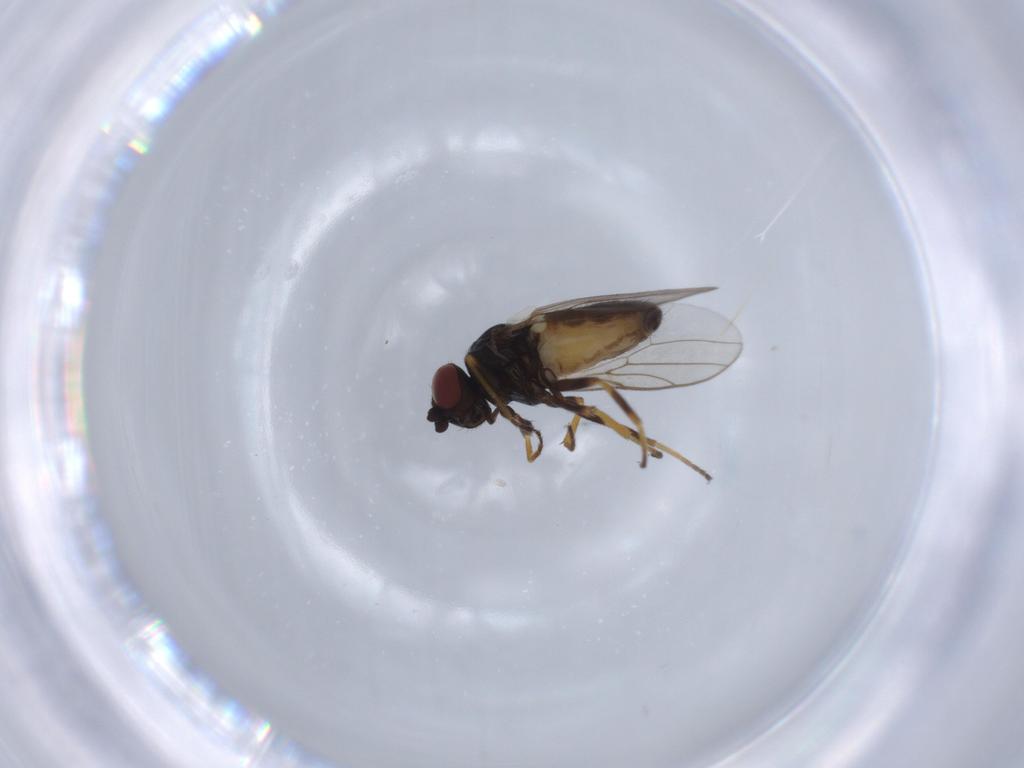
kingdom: Animalia
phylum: Arthropoda
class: Insecta
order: Diptera
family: Chloropidae
